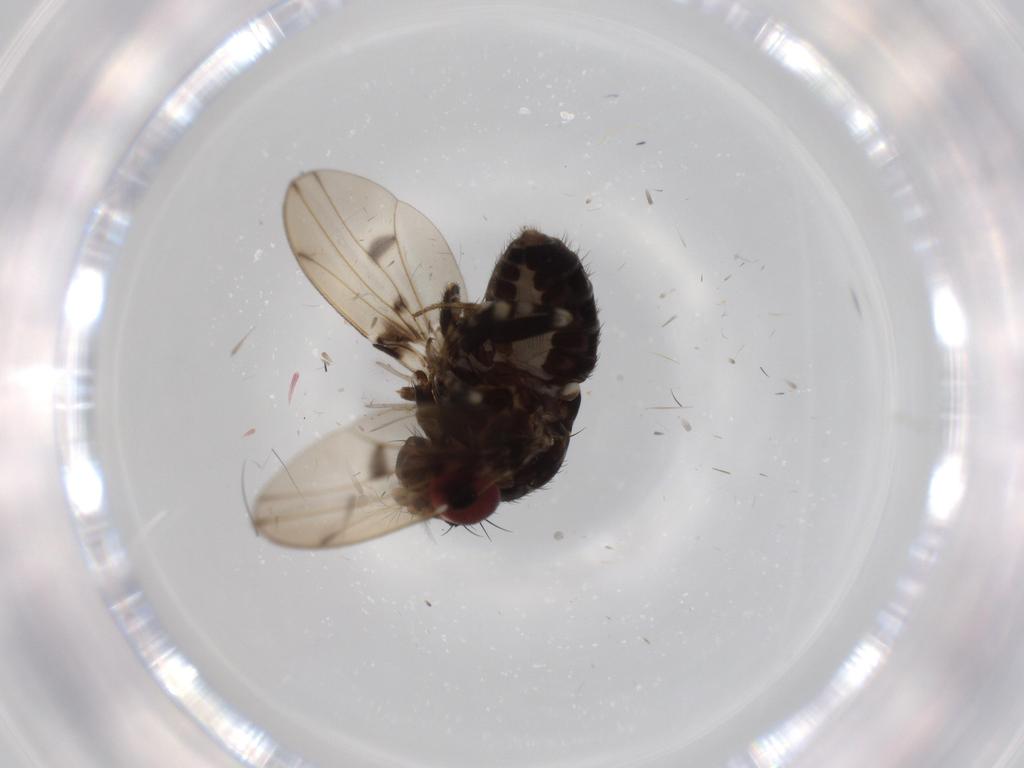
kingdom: Animalia
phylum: Arthropoda
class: Insecta
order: Diptera
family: Drosophilidae
